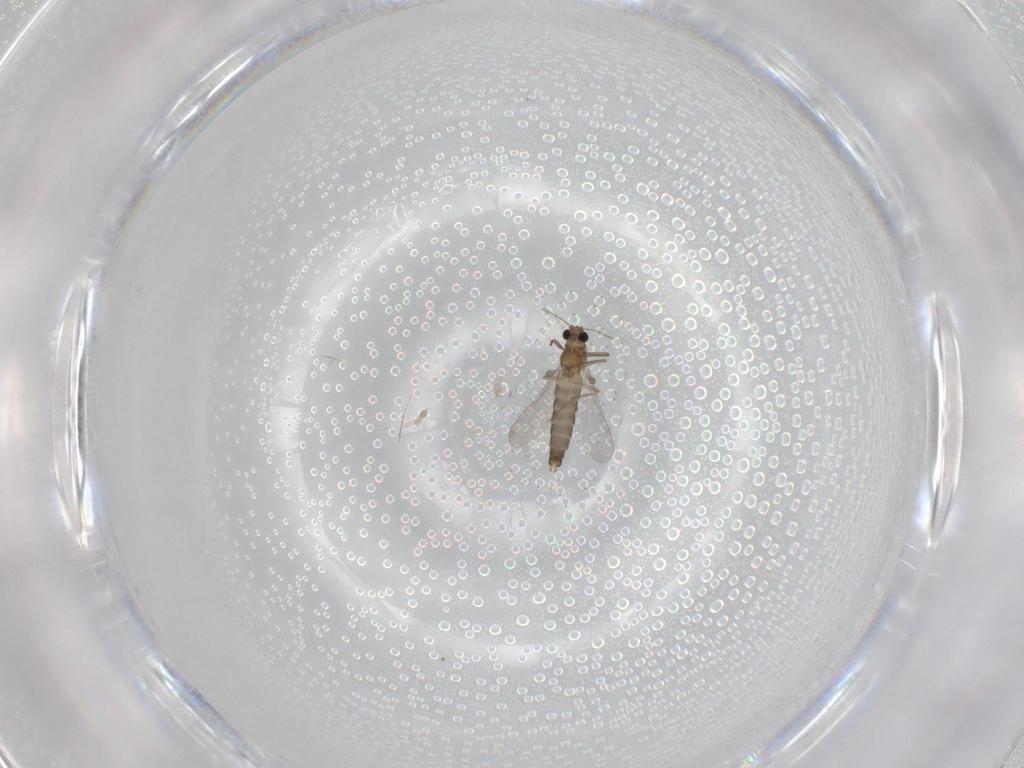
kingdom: Animalia
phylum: Arthropoda
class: Insecta
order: Diptera
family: Chironomidae
